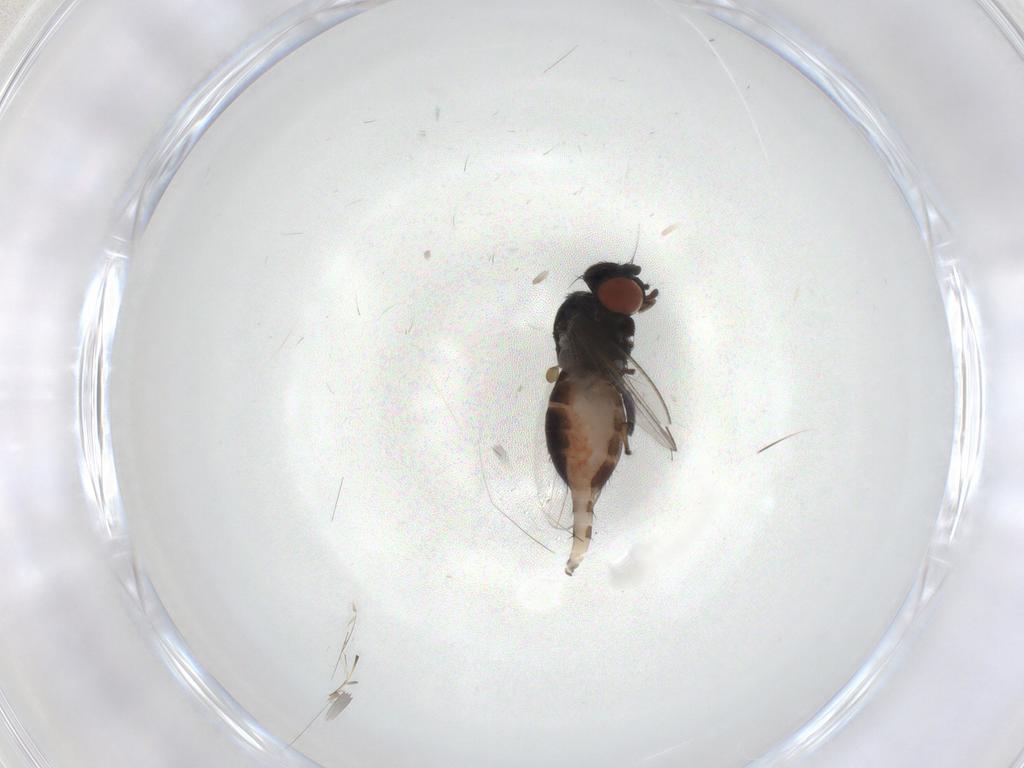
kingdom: Animalia
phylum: Arthropoda
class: Insecta
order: Diptera
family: Milichiidae
